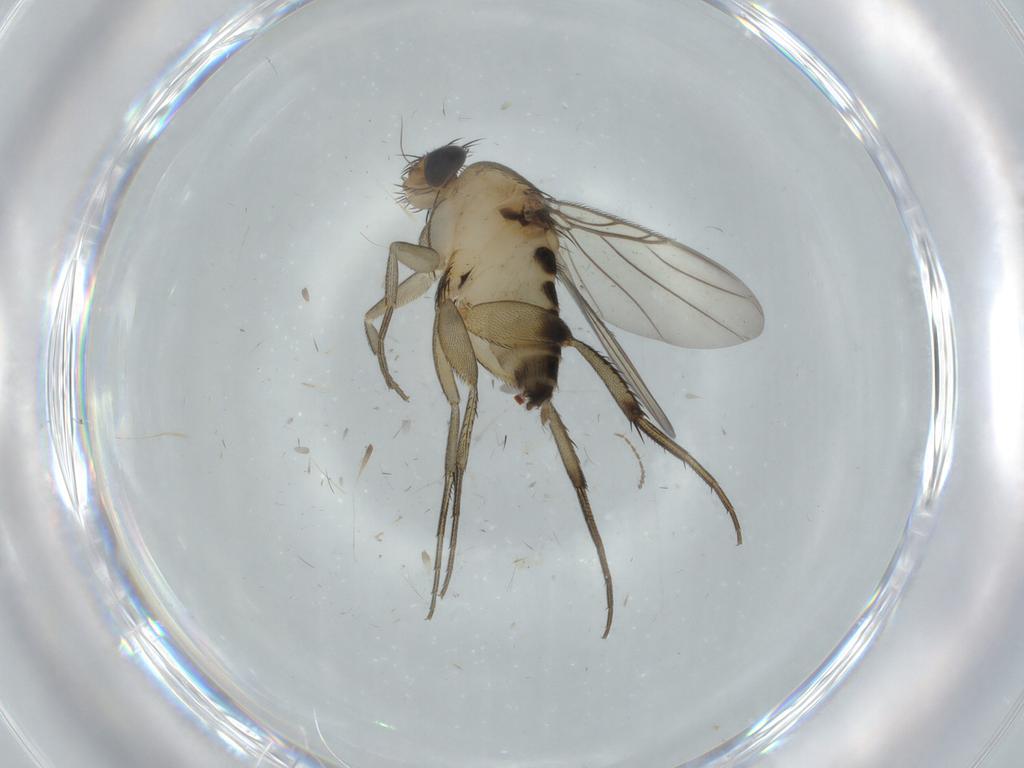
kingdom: Animalia
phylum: Arthropoda
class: Insecta
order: Diptera
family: Phoridae
